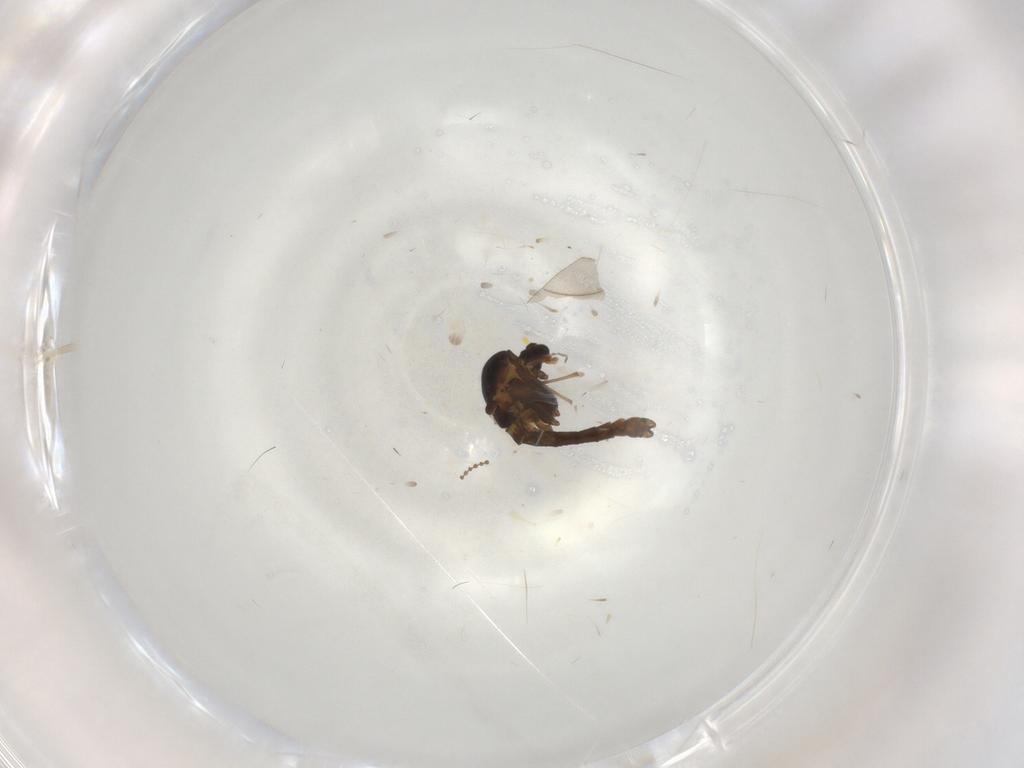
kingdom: Animalia
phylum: Arthropoda
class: Insecta
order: Diptera
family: Chironomidae
